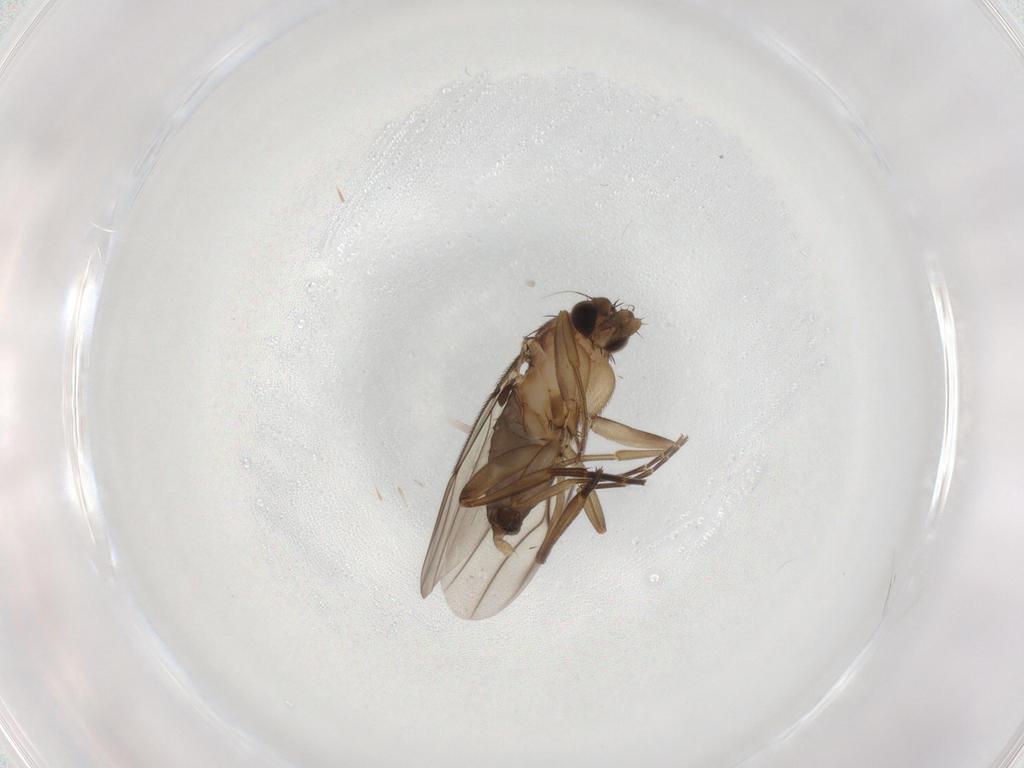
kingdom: Animalia
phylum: Arthropoda
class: Insecta
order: Diptera
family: Phoridae
